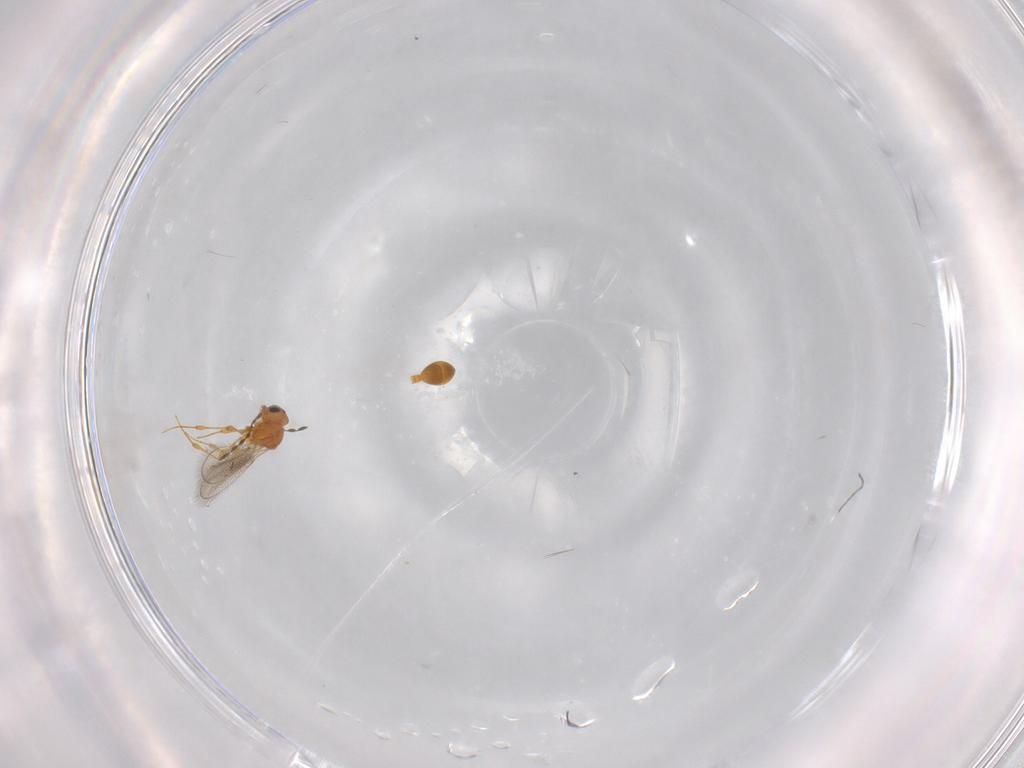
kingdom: Animalia
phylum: Arthropoda
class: Insecta
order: Hymenoptera
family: Platygastridae
